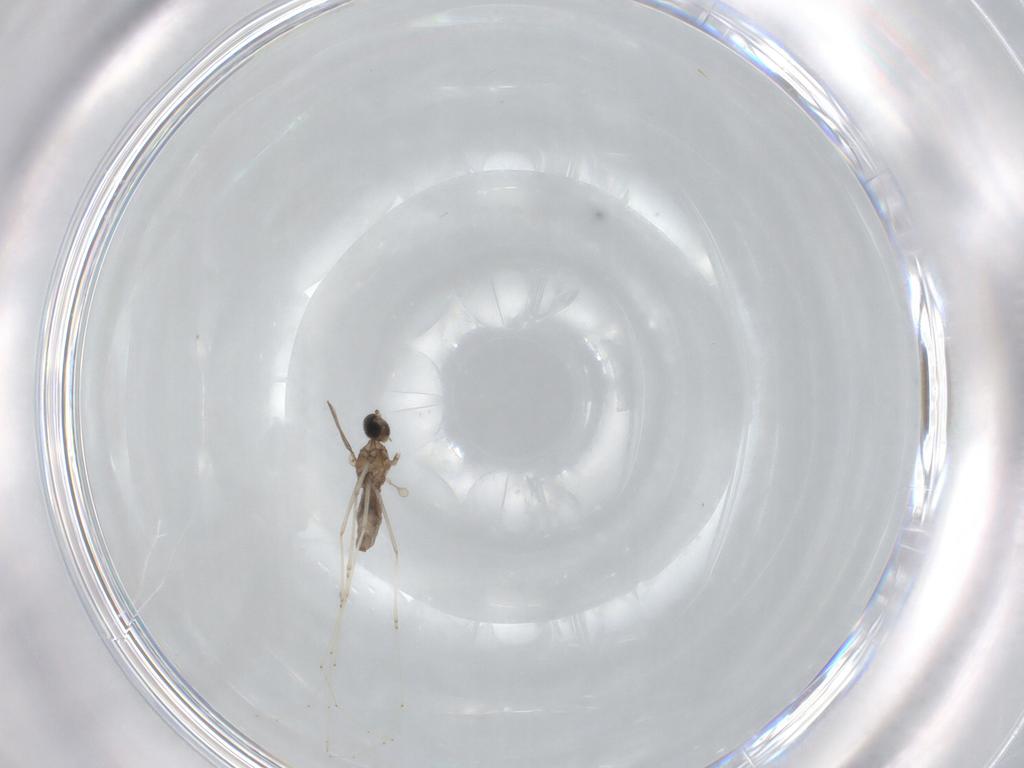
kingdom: Animalia
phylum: Arthropoda
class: Insecta
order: Diptera
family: Cecidomyiidae
